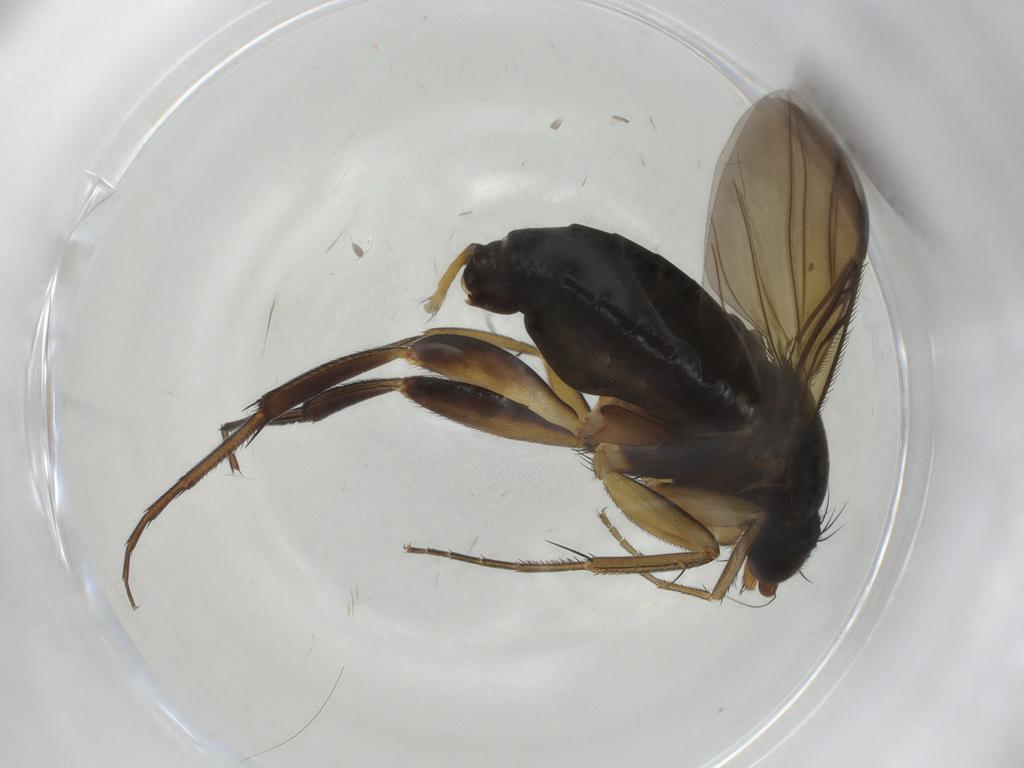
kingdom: Animalia
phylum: Arthropoda
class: Insecta
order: Diptera
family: Phoridae
